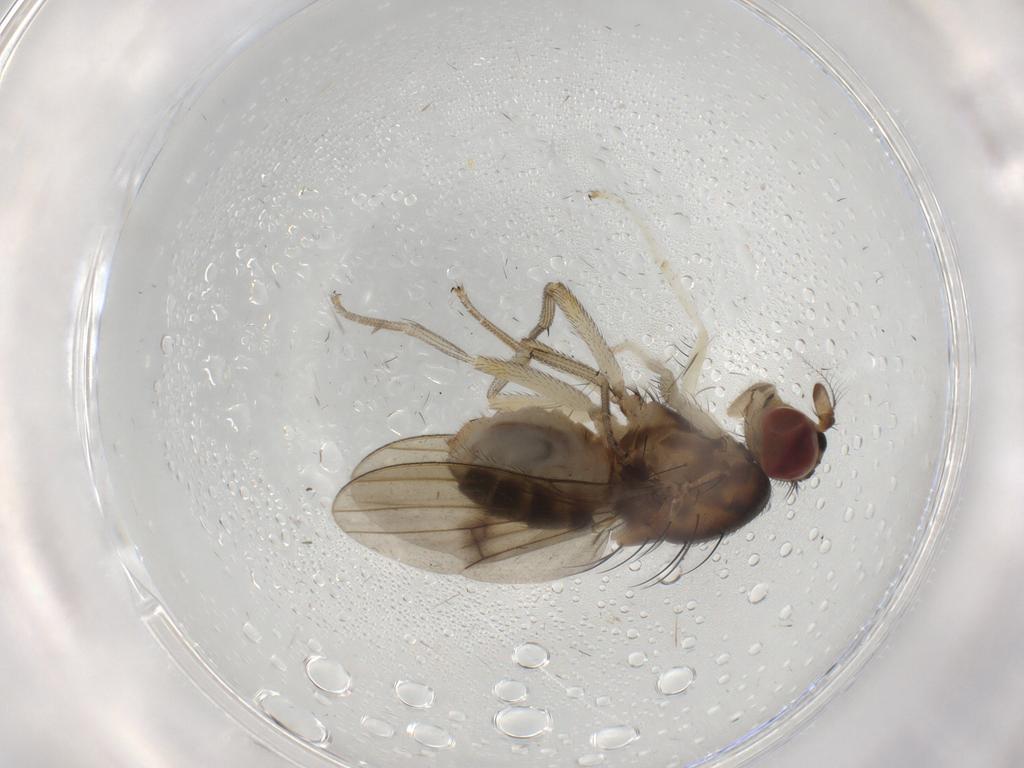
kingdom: Animalia
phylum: Arthropoda
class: Insecta
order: Diptera
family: Lauxaniidae
